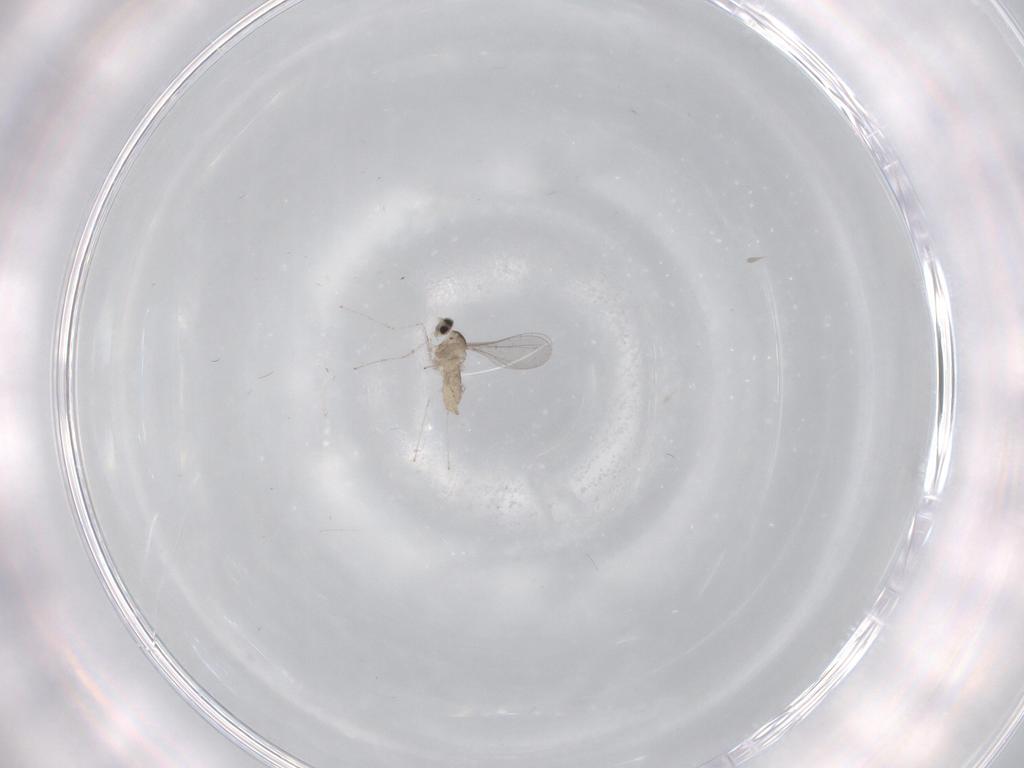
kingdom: Animalia
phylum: Arthropoda
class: Insecta
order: Diptera
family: Cecidomyiidae
